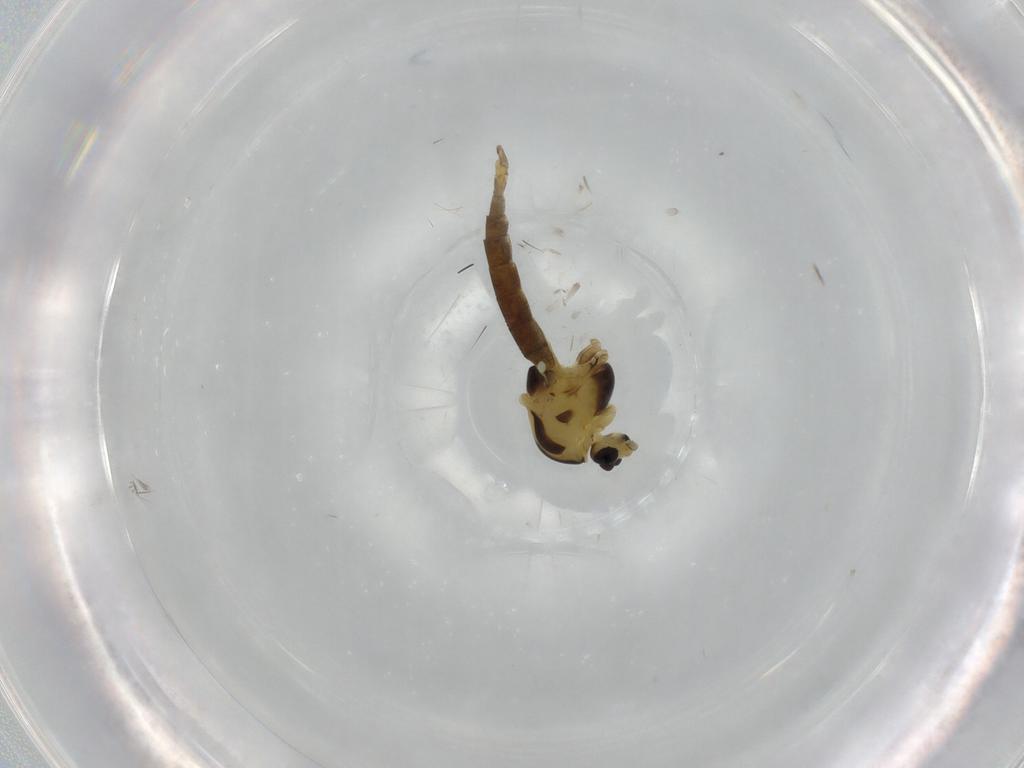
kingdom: Animalia
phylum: Arthropoda
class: Insecta
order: Diptera
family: Chironomidae
